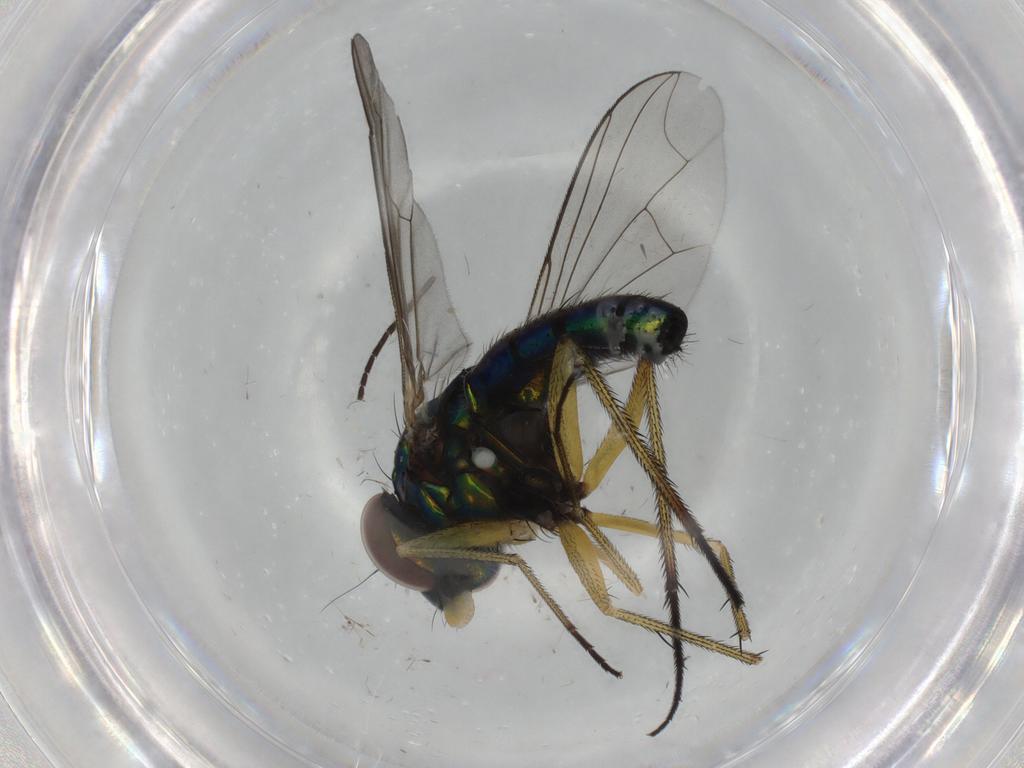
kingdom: Animalia
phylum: Arthropoda
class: Insecta
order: Diptera
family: Dolichopodidae
